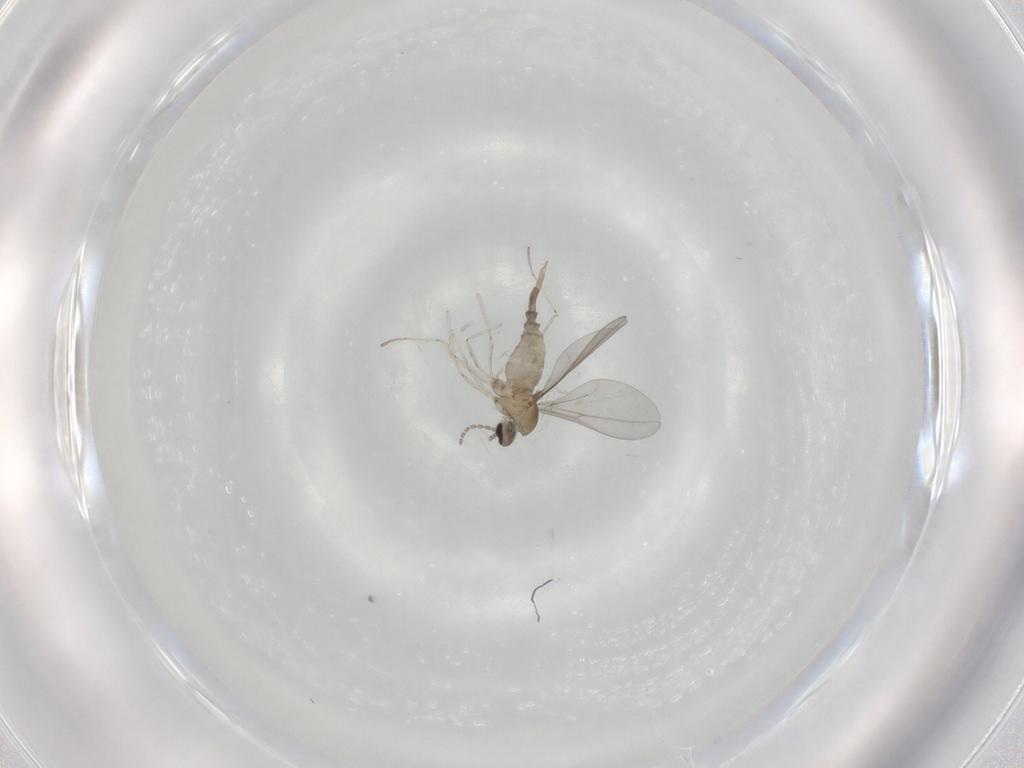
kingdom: Animalia
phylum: Arthropoda
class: Insecta
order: Diptera
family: Cecidomyiidae
